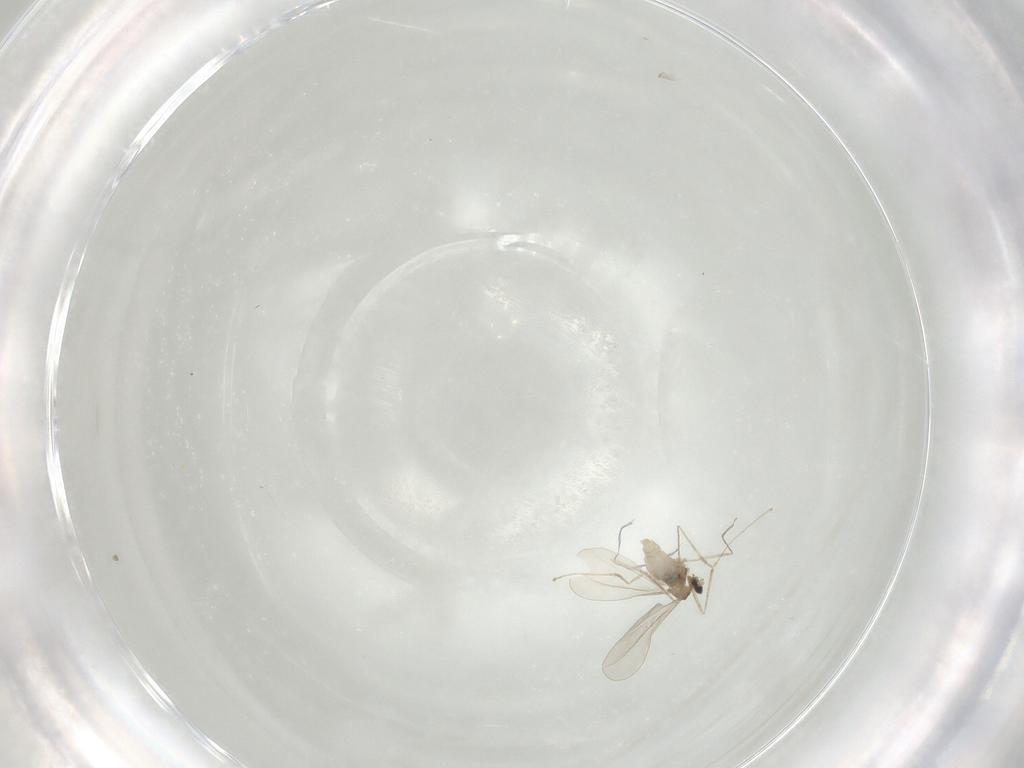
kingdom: Animalia
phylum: Arthropoda
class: Insecta
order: Diptera
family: Cecidomyiidae
